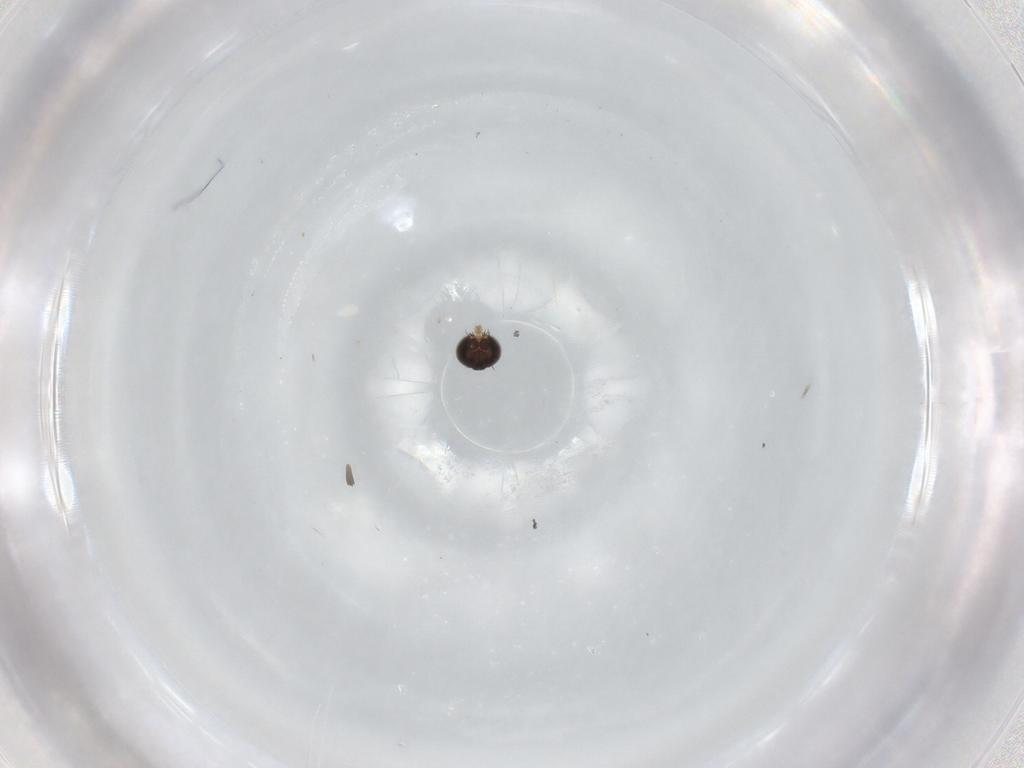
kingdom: Animalia
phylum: Arthropoda
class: Insecta
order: Diptera
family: Phoridae
